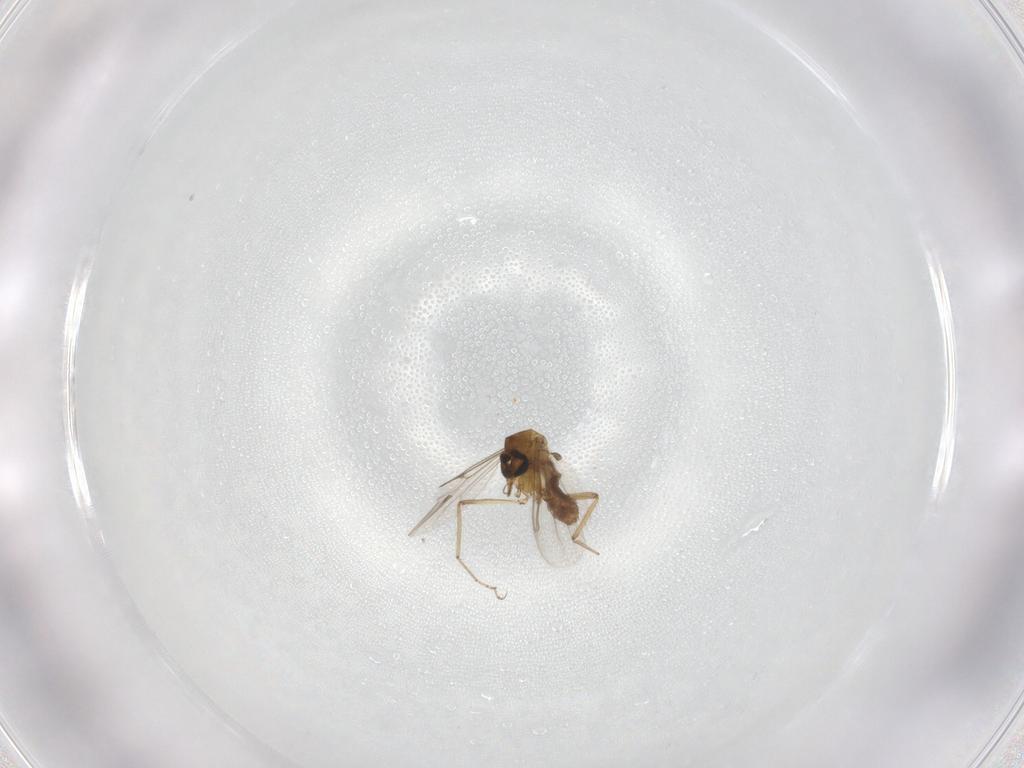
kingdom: Animalia
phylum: Arthropoda
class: Insecta
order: Diptera
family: Ceratopogonidae
